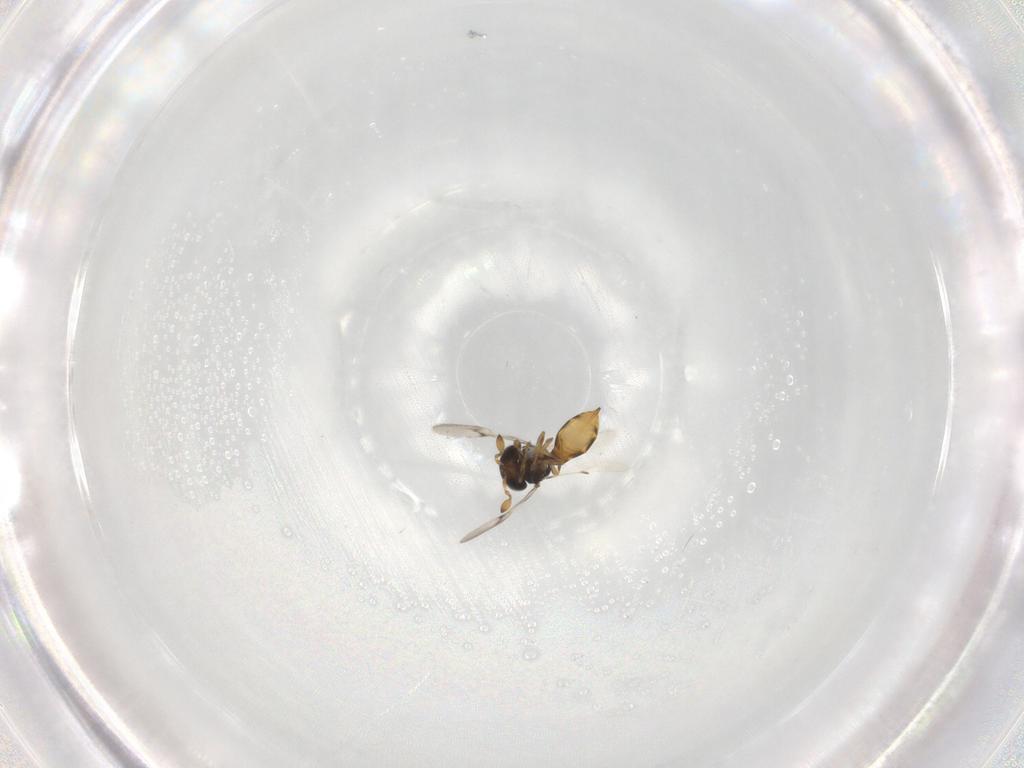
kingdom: Animalia
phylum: Arthropoda
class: Insecta
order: Hymenoptera
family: Scelionidae
